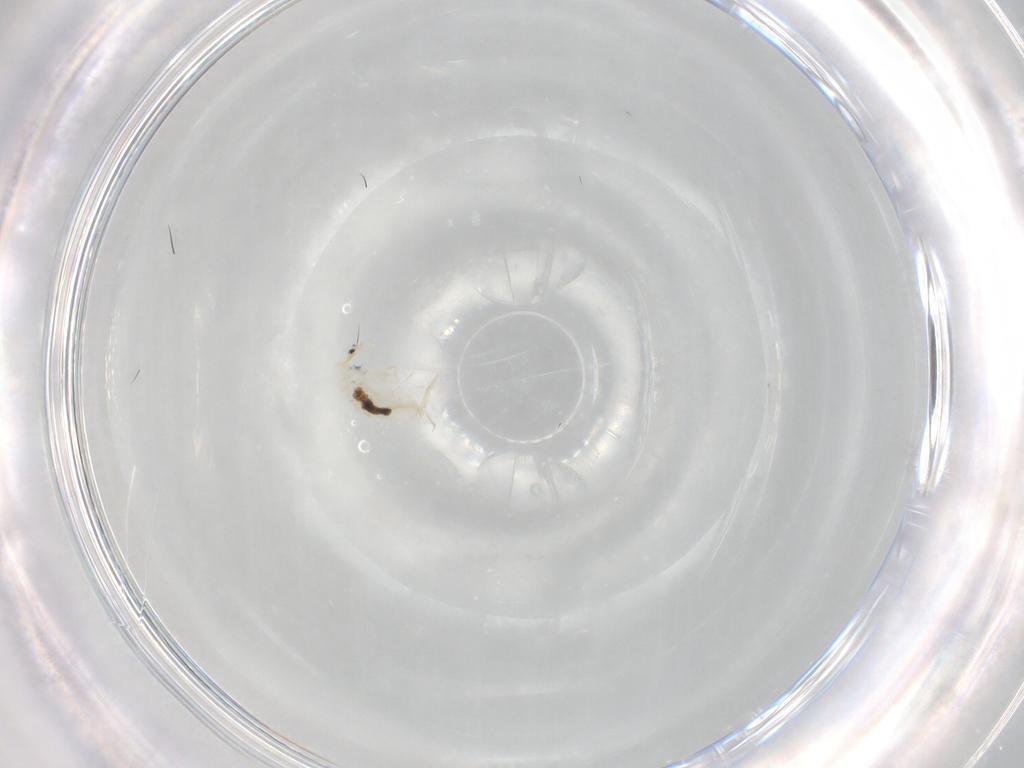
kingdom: Animalia
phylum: Arthropoda
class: Collembola
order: Entomobryomorpha
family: Entomobryidae
